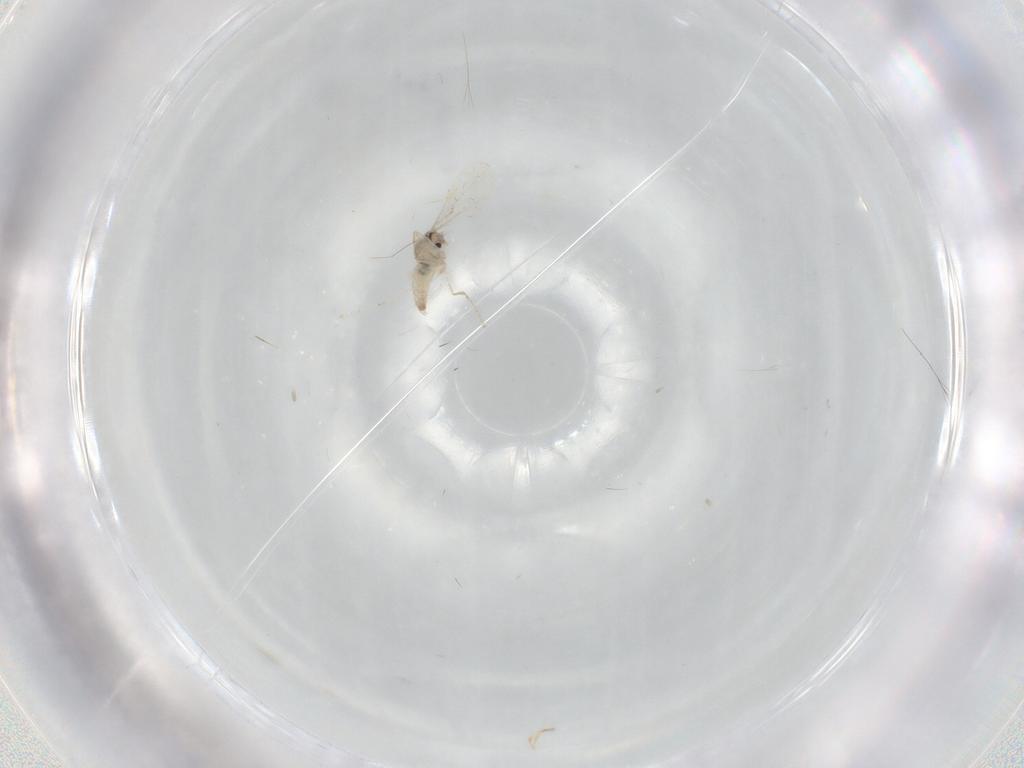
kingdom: Animalia
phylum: Arthropoda
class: Insecta
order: Diptera
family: Cecidomyiidae
